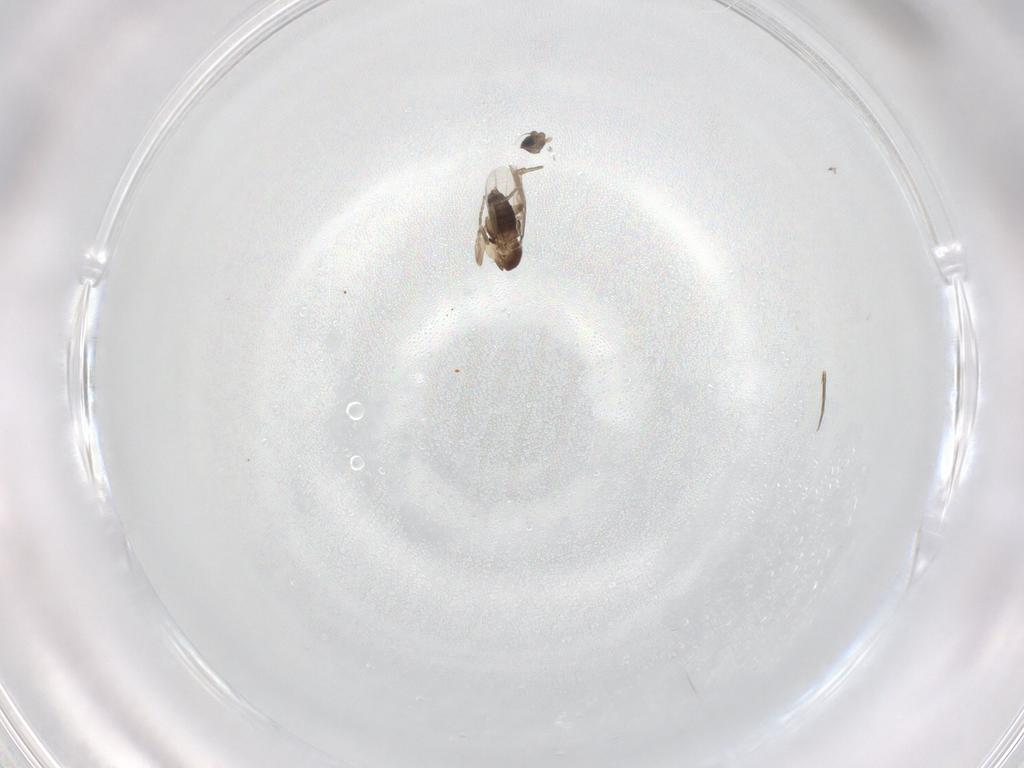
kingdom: Animalia
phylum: Arthropoda
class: Insecta
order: Diptera
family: Phoridae
